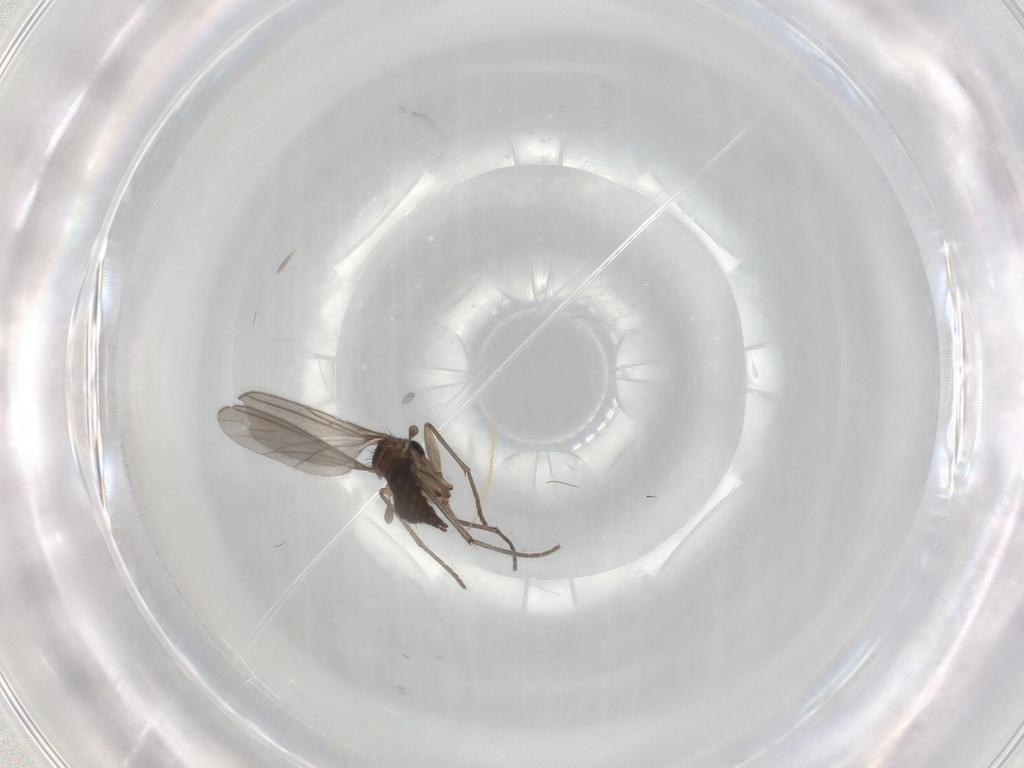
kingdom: Animalia
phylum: Arthropoda
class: Insecta
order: Diptera
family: Sciaridae
